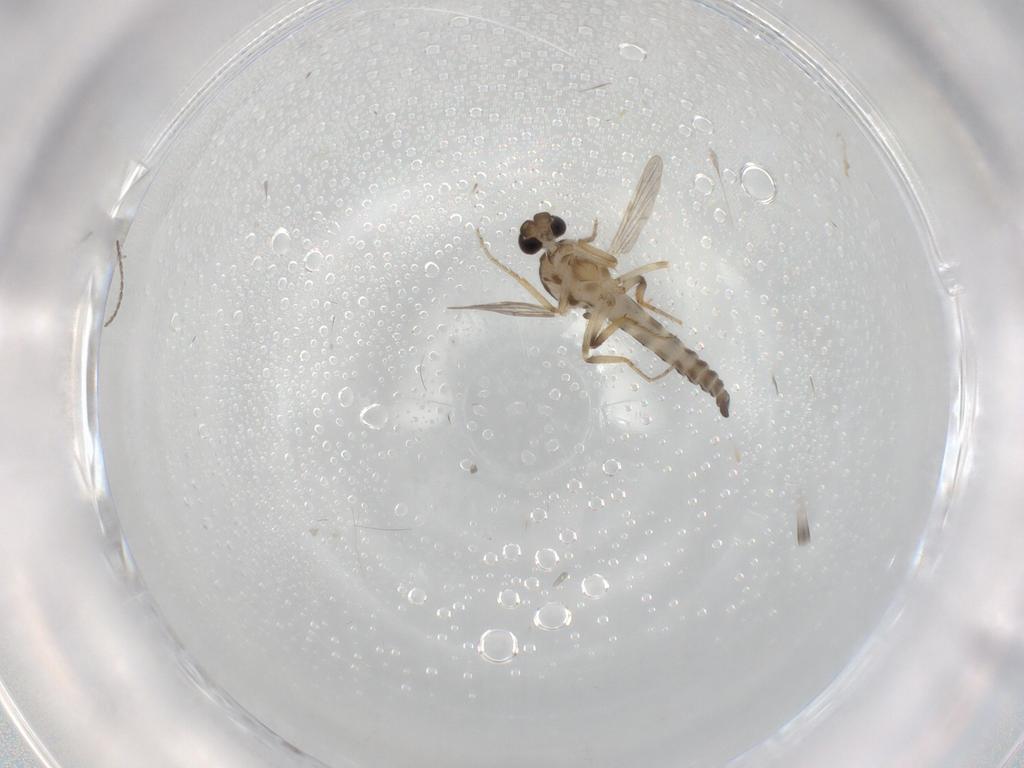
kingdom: Animalia
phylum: Arthropoda
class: Insecta
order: Diptera
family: Ceratopogonidae
